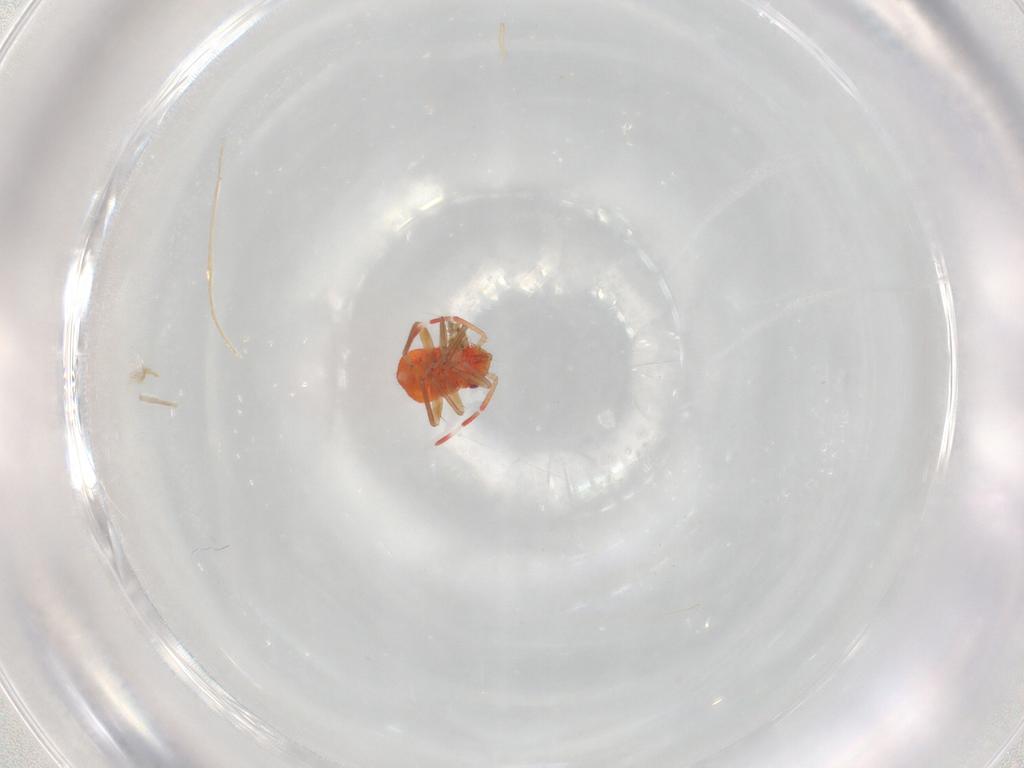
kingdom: Animalia
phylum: Arthropoda
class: Insecta
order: Hemiptera
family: Miridae
